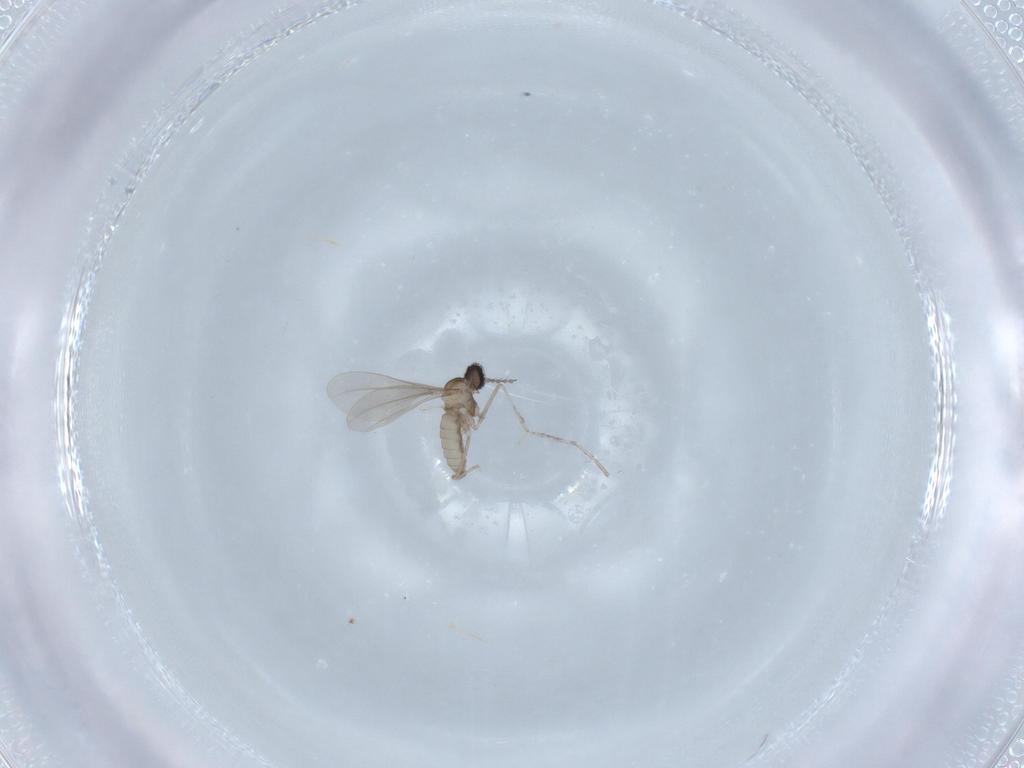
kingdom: Animalia
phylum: Arthropoda
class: Insecta
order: Diptera
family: Cecidomyiidae
